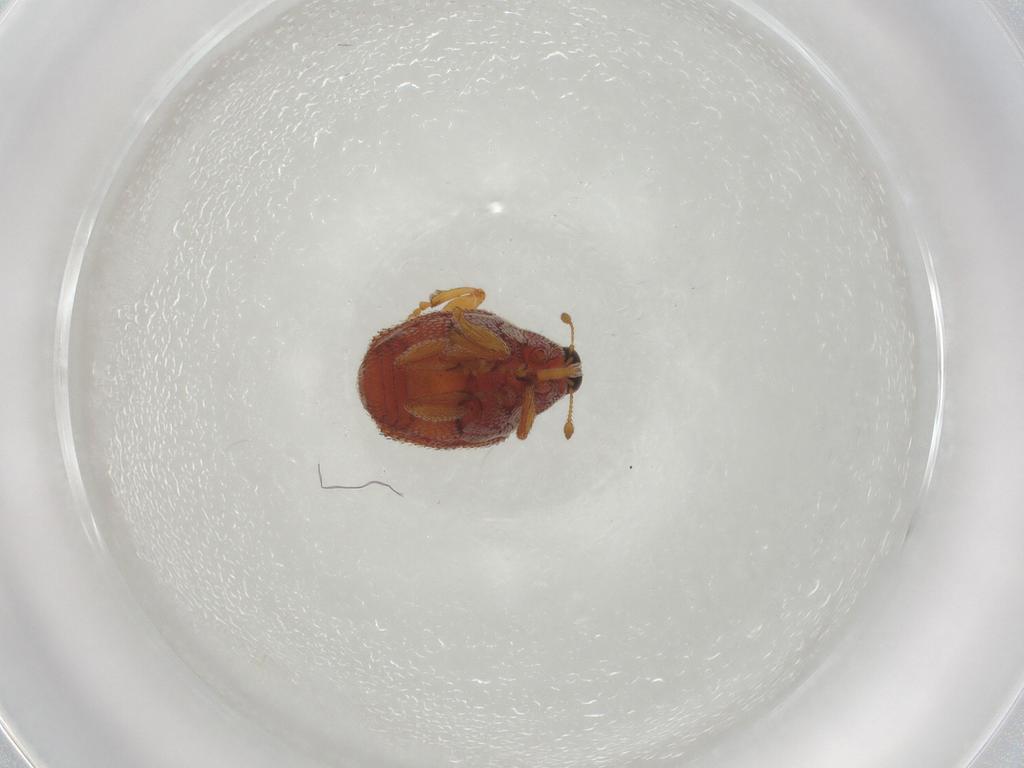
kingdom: Animalia
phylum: Arthropoda
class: Insecta
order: Coleoptera
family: Curculionidae
